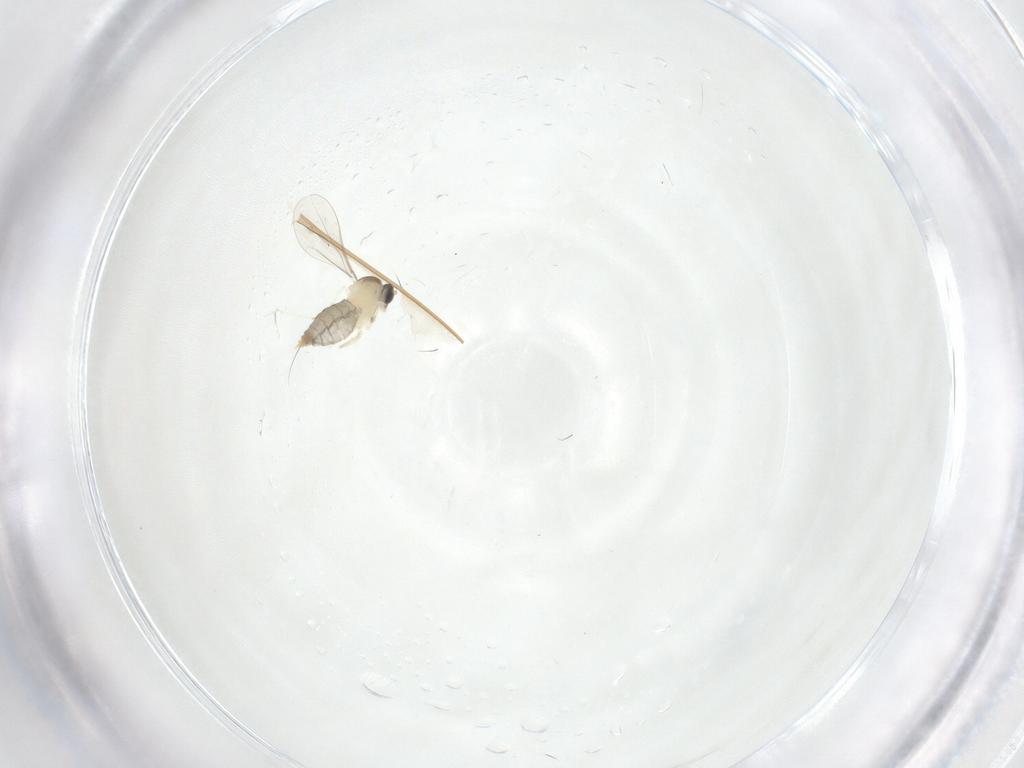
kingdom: Animalia
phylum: Arthropoda
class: Insecta
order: Diptera
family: Cecidomyiidae
